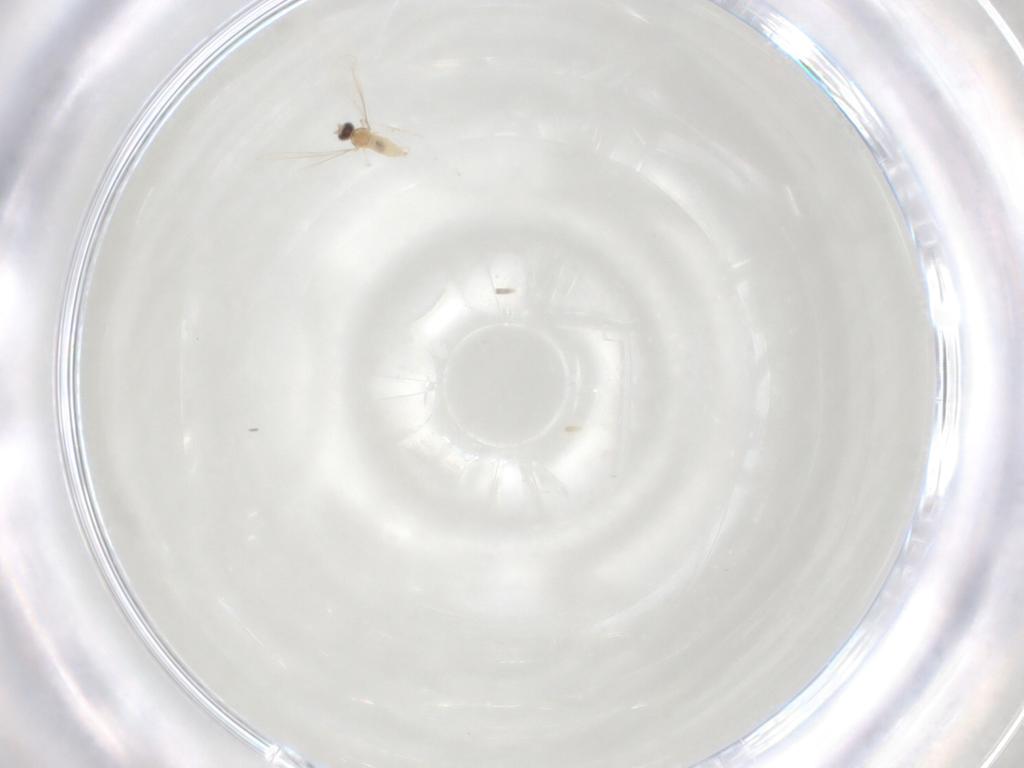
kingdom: Animalia
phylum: Arthropoda
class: Insecta
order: Diptera
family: Cecidomyiidae
